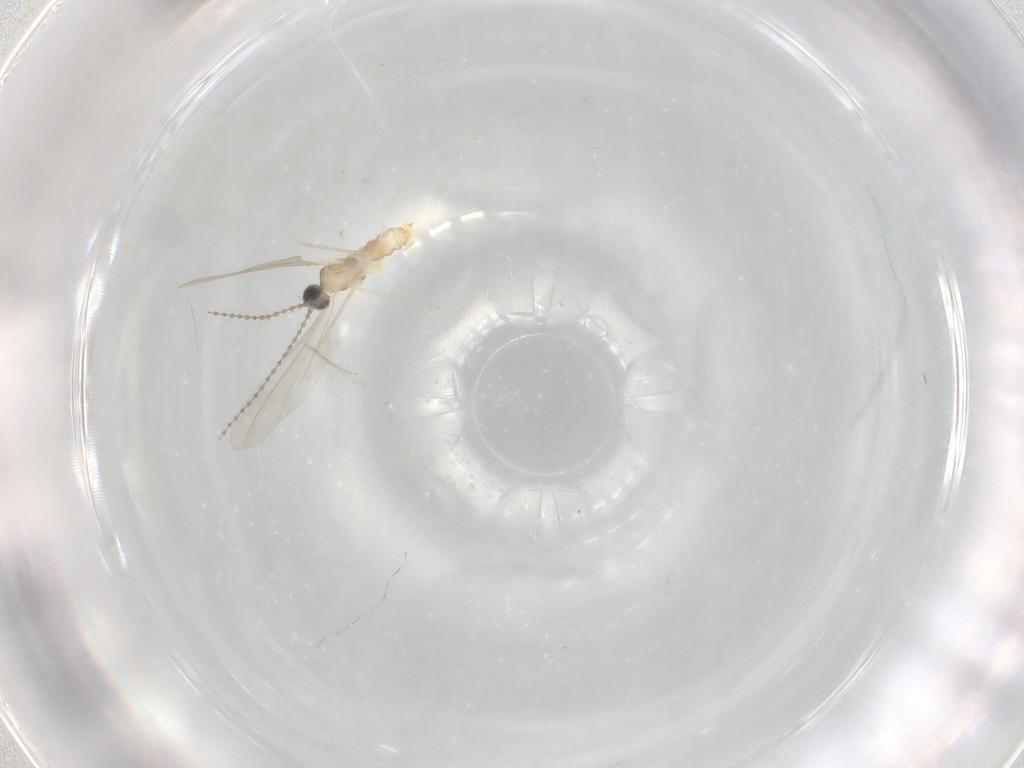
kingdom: Animalia
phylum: Arthropoda
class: Insecta
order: Diptera
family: Cecidomyiidae
